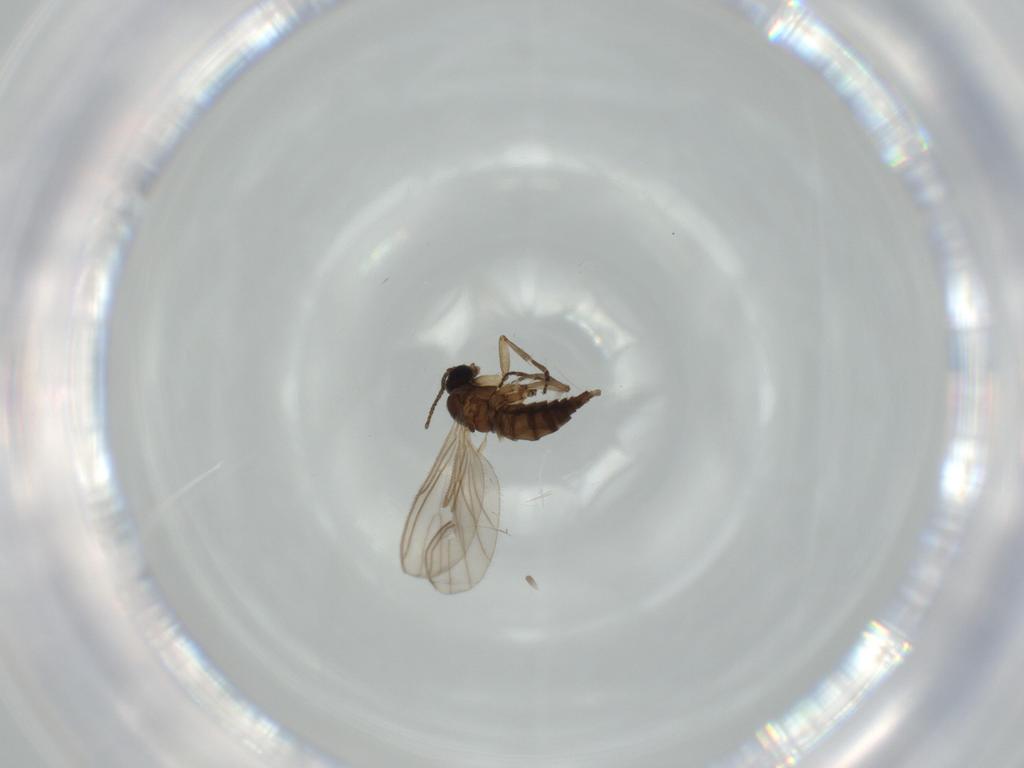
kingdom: Animalia
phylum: Arthropoda
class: Insecta
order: Diptera
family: Sciaridae
